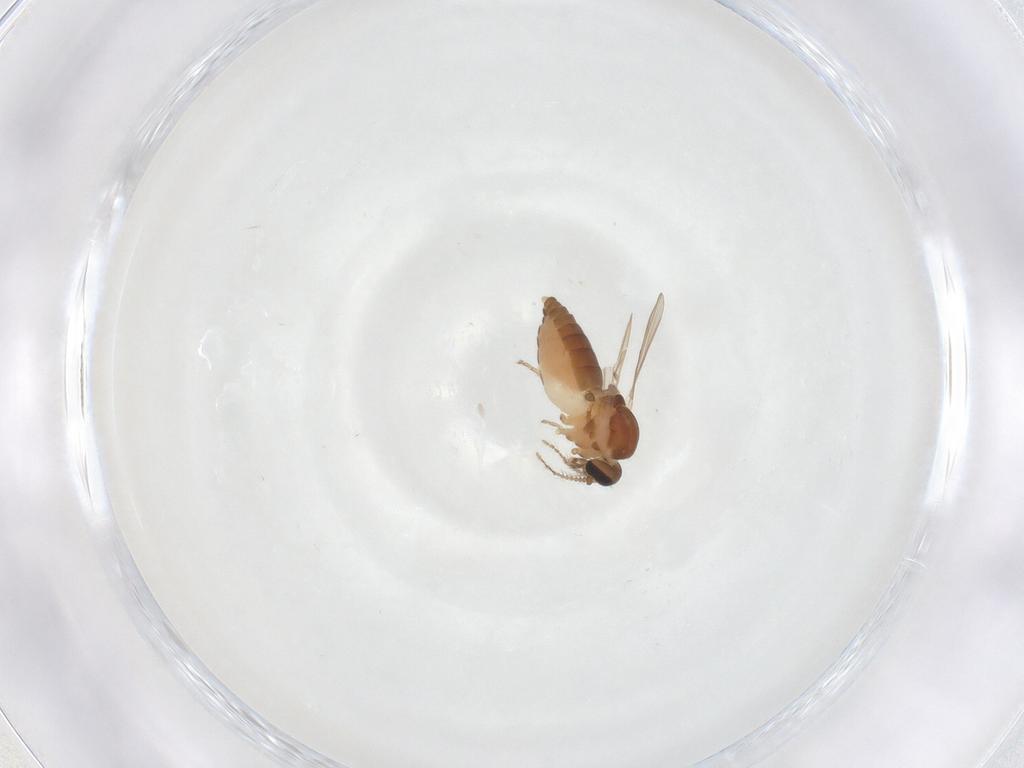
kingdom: Animalia
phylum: Arthropoda
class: Insecta
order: Diptera
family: Ceratopogonidae
